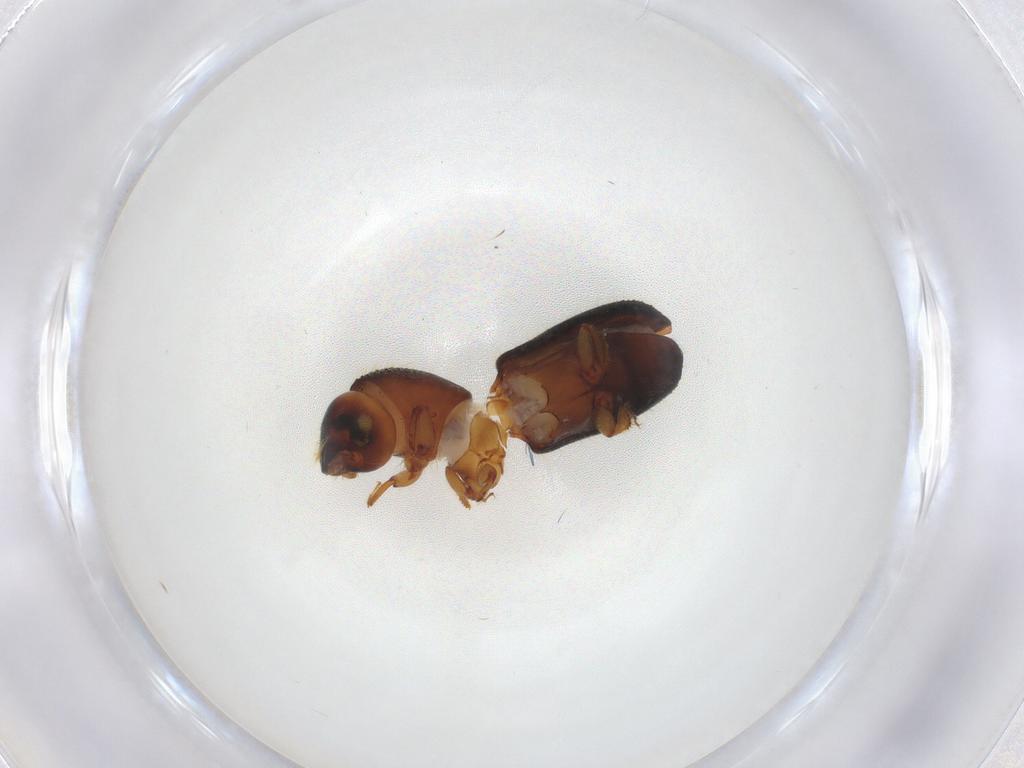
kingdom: Animalia
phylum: Arthropoda
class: Insecta
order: Coleoptera
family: Curculionidae
